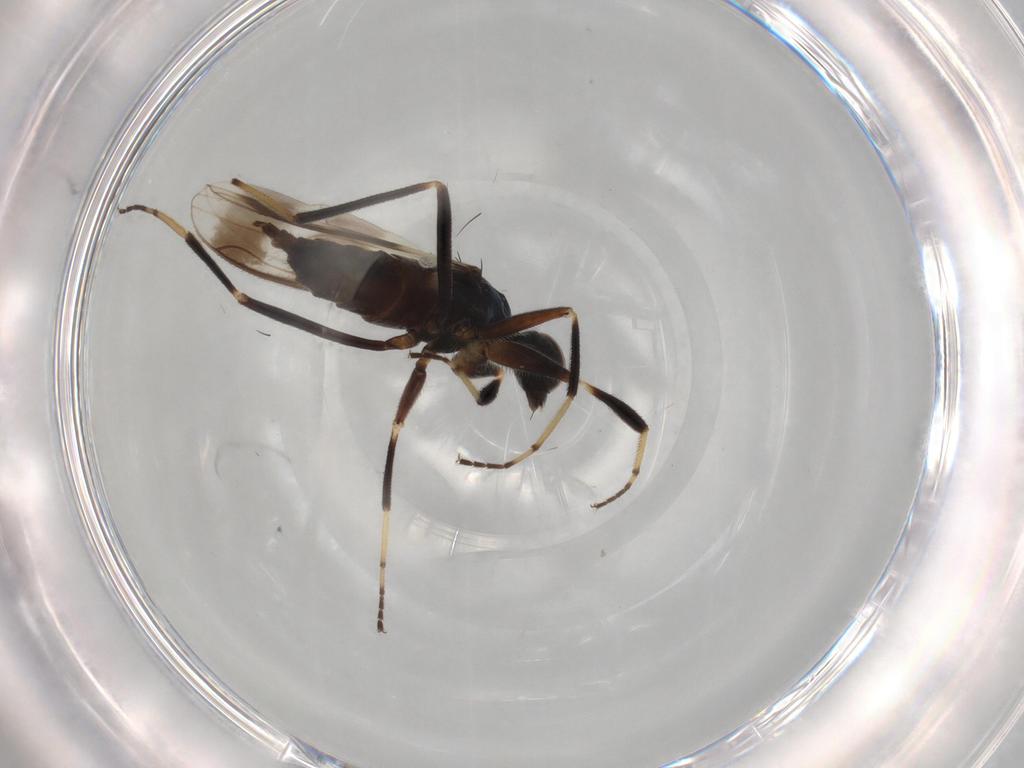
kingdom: Animalia
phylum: Arthropoda
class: Insecta
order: Diptera
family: Hybotidae
